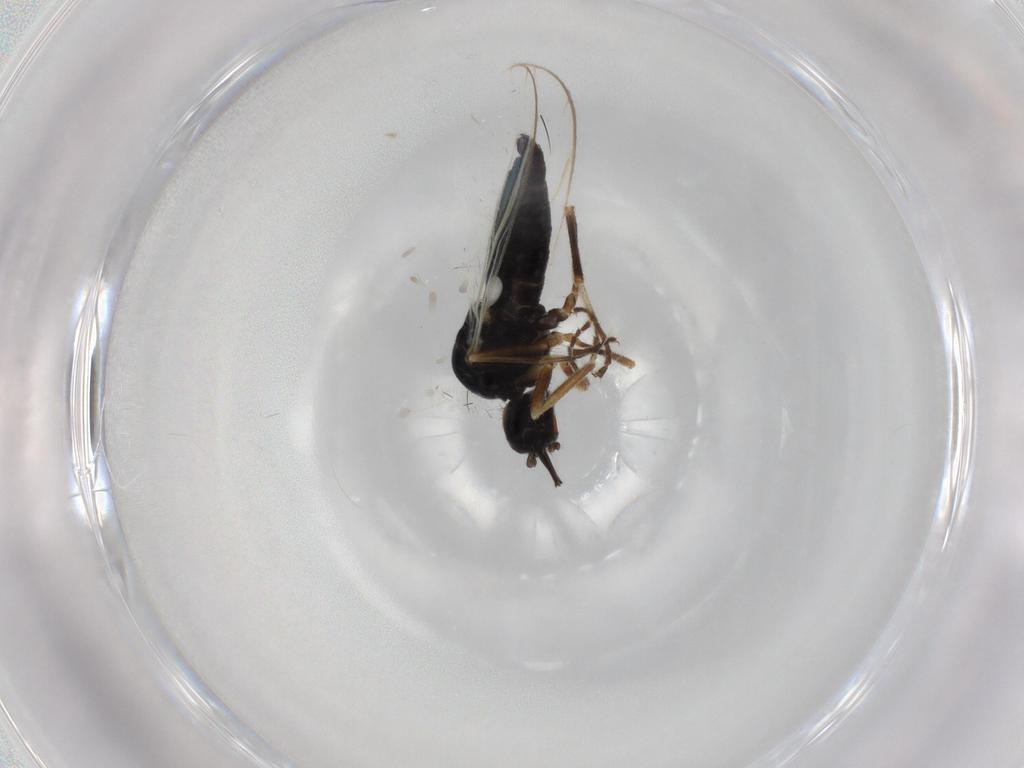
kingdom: Animalia
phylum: Arthropoda
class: Insecta
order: Diptera
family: Hybotidae
